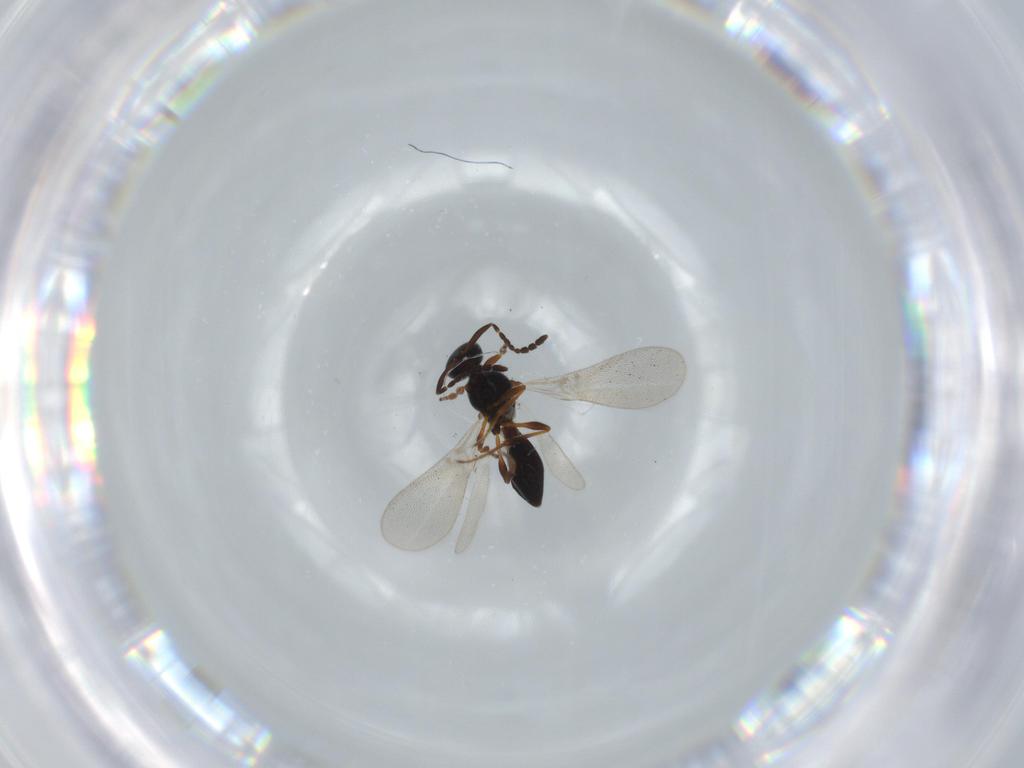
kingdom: Animalia
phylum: Arthropoda
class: Insecta
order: Hymenoptera
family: Platygastridae
